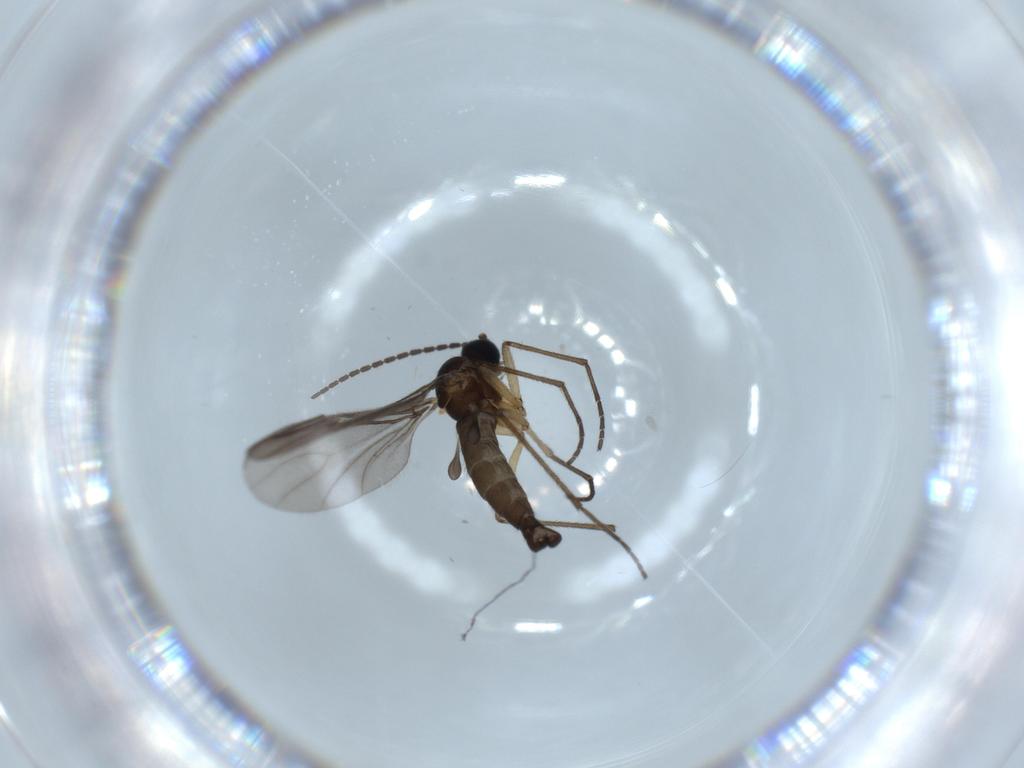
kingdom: Animalia
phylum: Arthropoda
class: Insecta
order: Diptera
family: Sciaridae
